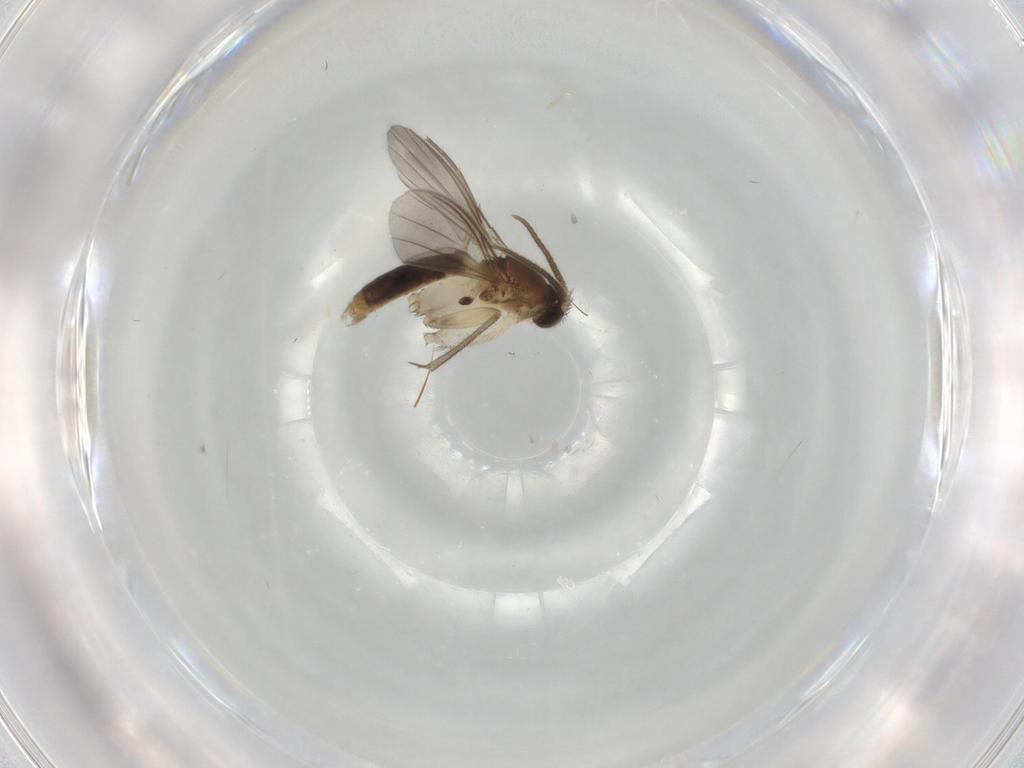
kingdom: Animalia
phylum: Arthropoda
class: Insecta
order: Diptera
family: Mycetophilidae
